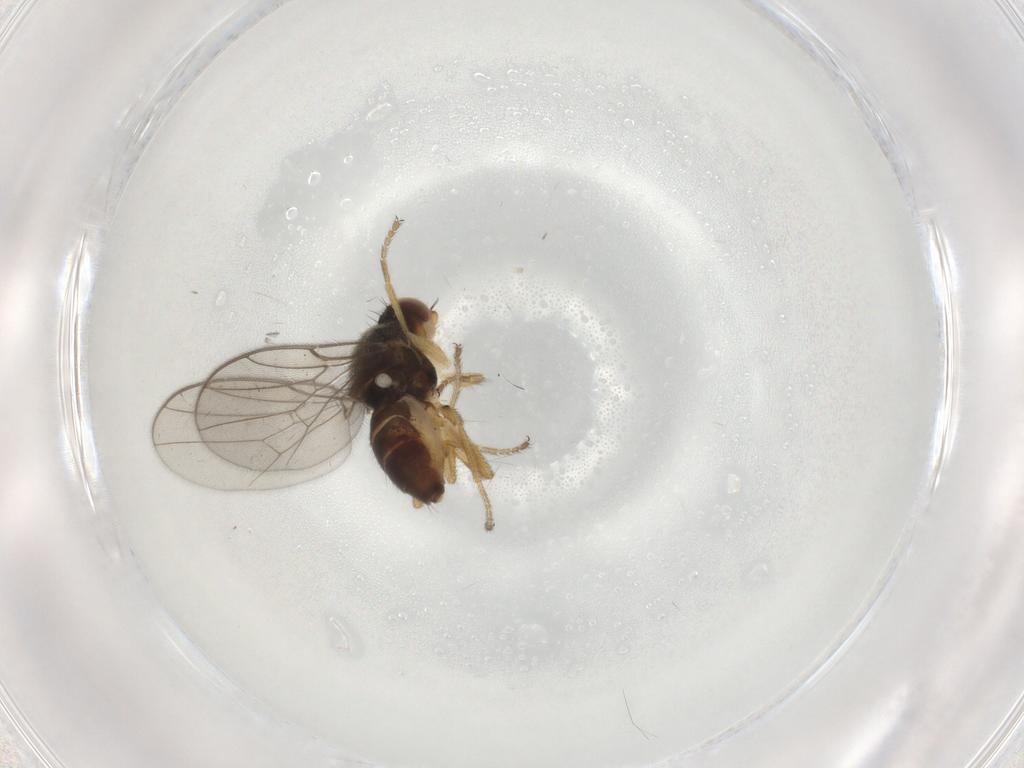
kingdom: Animalia
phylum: Arthropoda
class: Insecta
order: Diptera
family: Chloropidae
